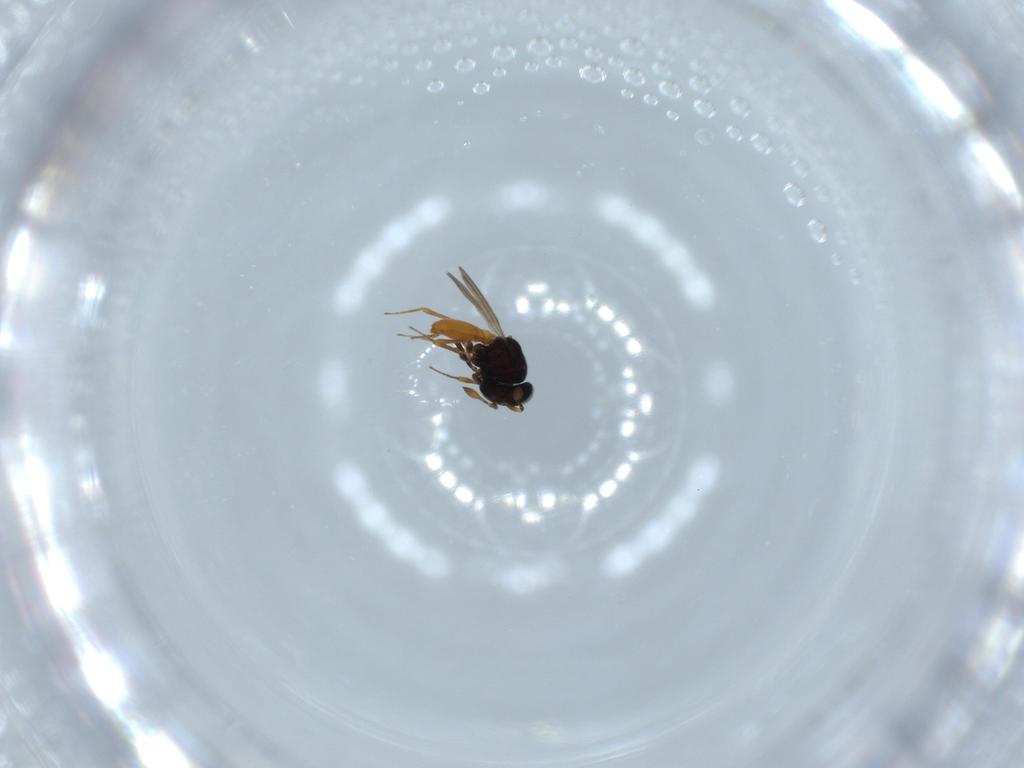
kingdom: Animalia
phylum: Arthropoda
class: Insecta
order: Hymenoptera
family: Scelionidae
